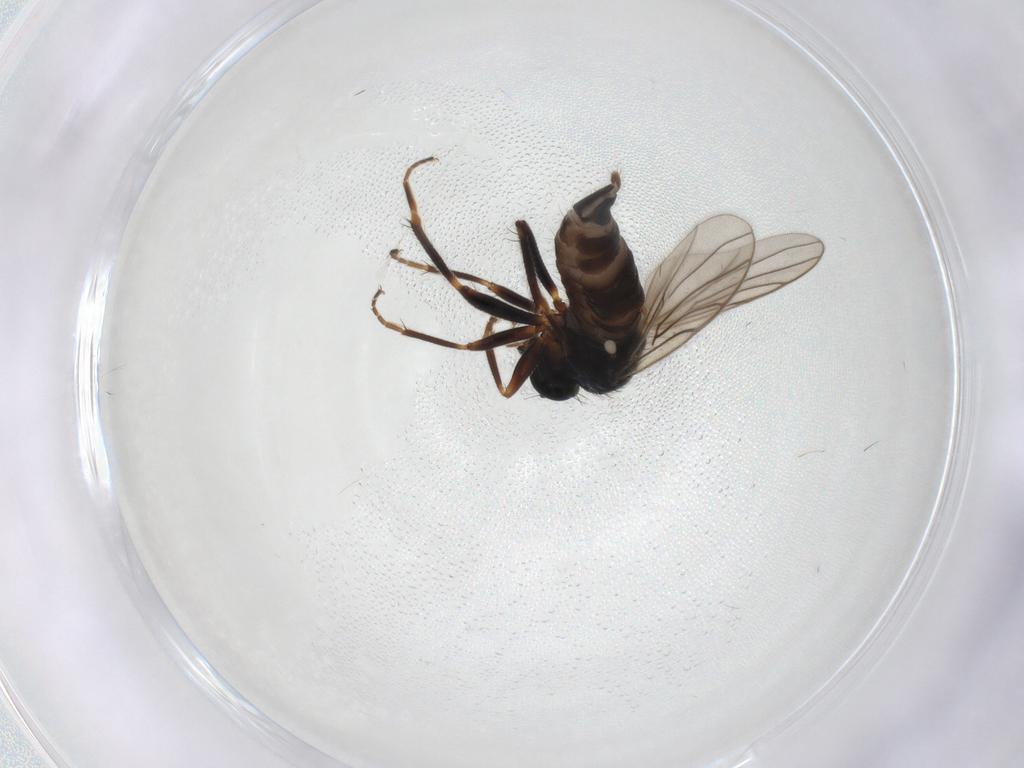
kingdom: Animalia
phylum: Arthropoda
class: Insecta
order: Diptera
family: Hybotidae
